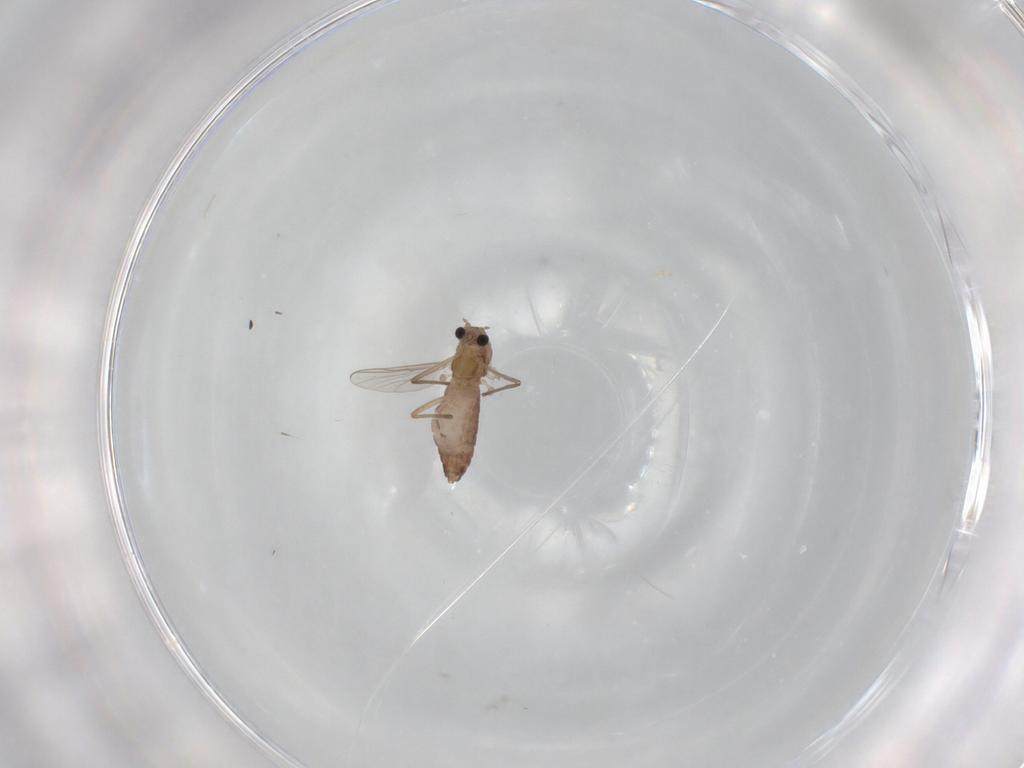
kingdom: Animalia
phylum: Arthropoda
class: Insecta
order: Diptera
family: Chironomidae
